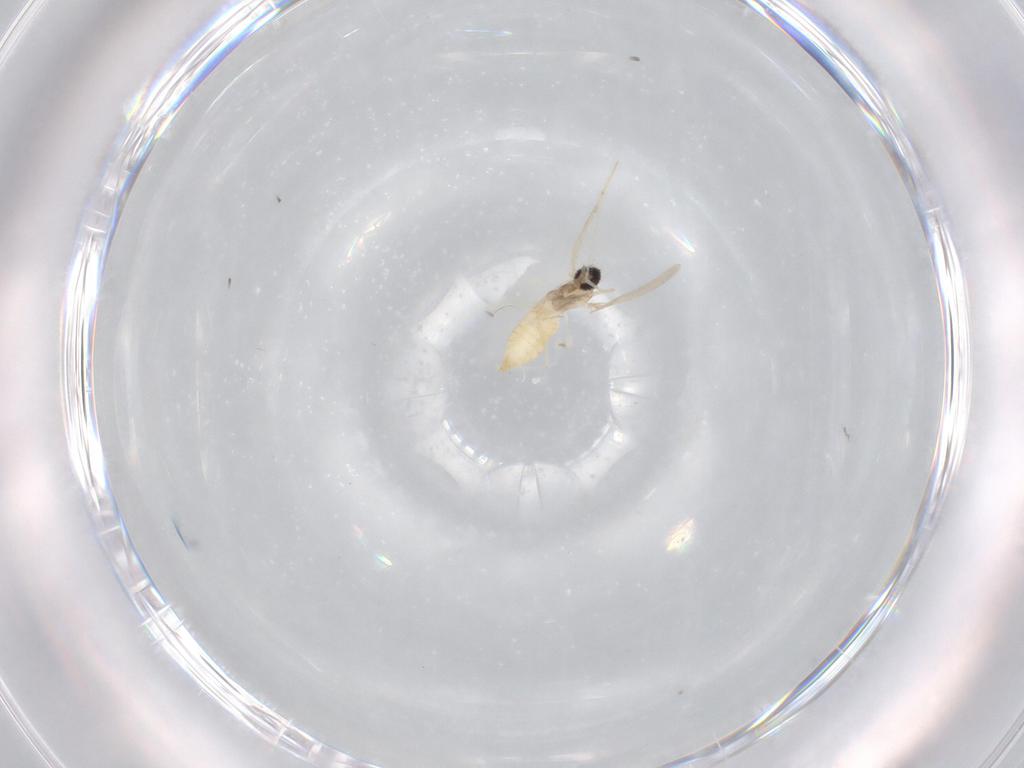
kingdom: Animalia
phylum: Arthropoda
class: Insecta
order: Diptera
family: Cecidomyiidae
